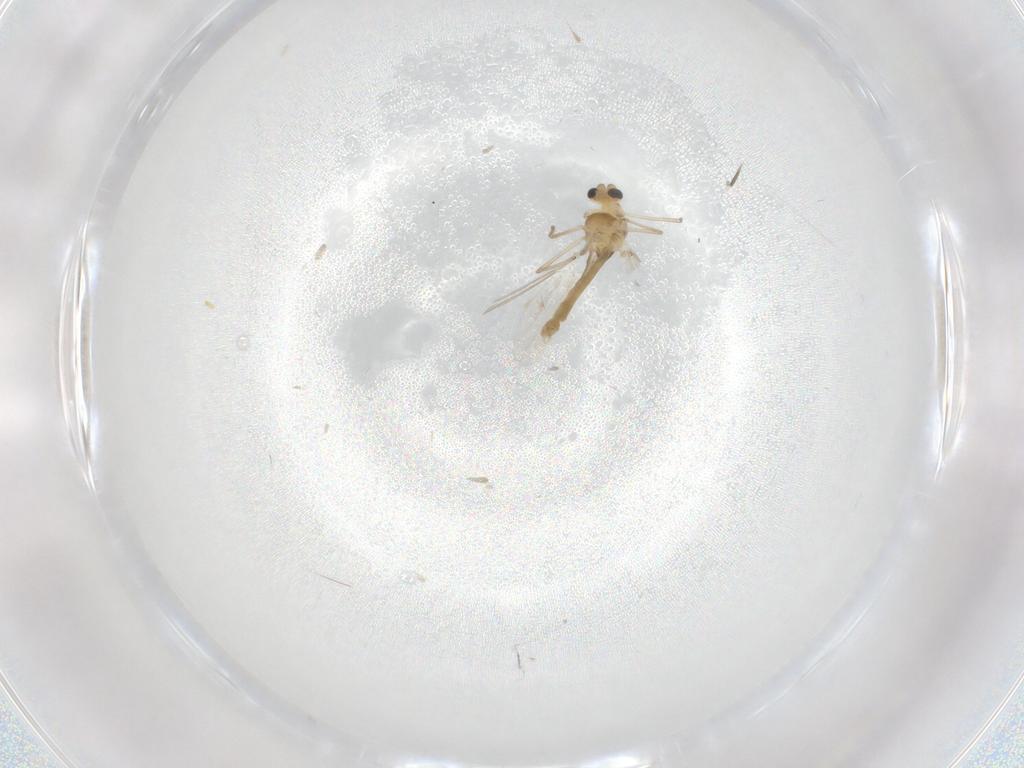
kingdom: Animalia
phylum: Arthropoda
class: Insecta
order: Diptera
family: Chironomidae
